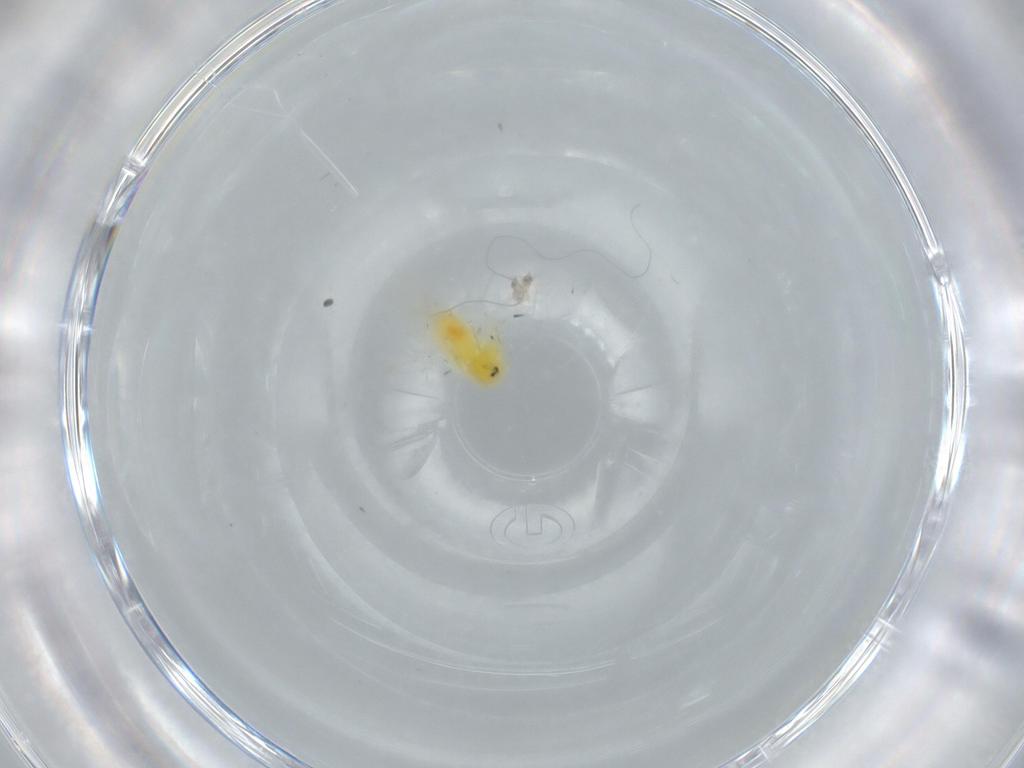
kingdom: Animalia
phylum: Arthropoda
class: Insecta
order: Hemiptera
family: Aleyrodidae
